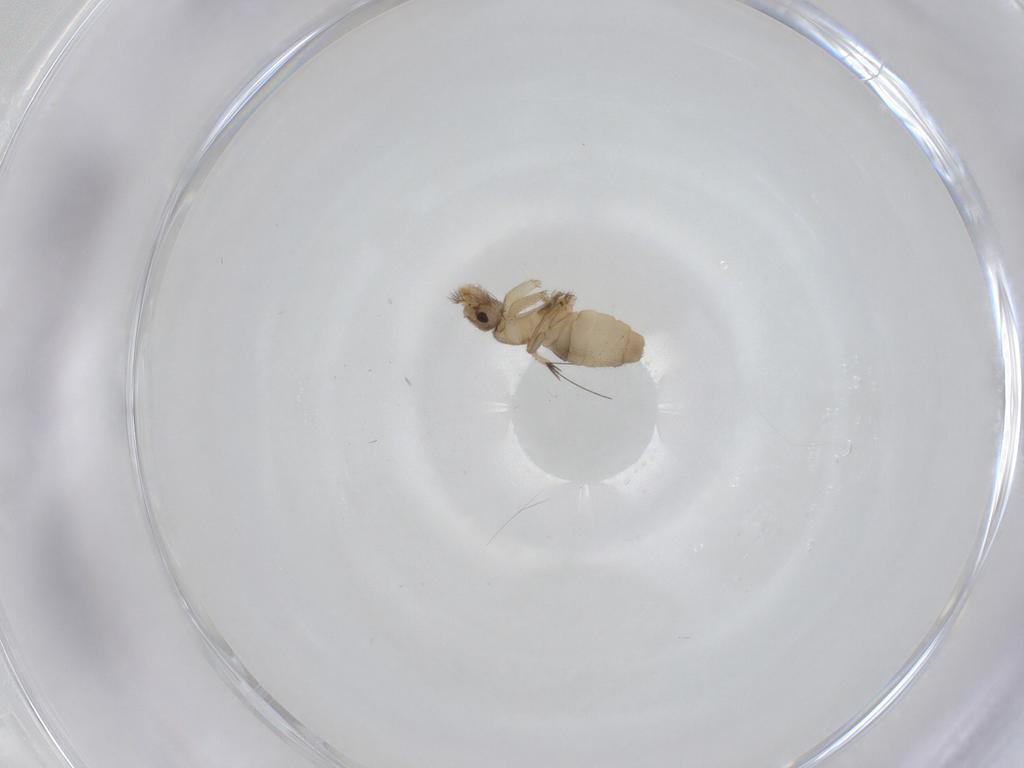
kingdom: Animalia
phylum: Arthropoda
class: Insecta
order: Diptera
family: Phoridae
